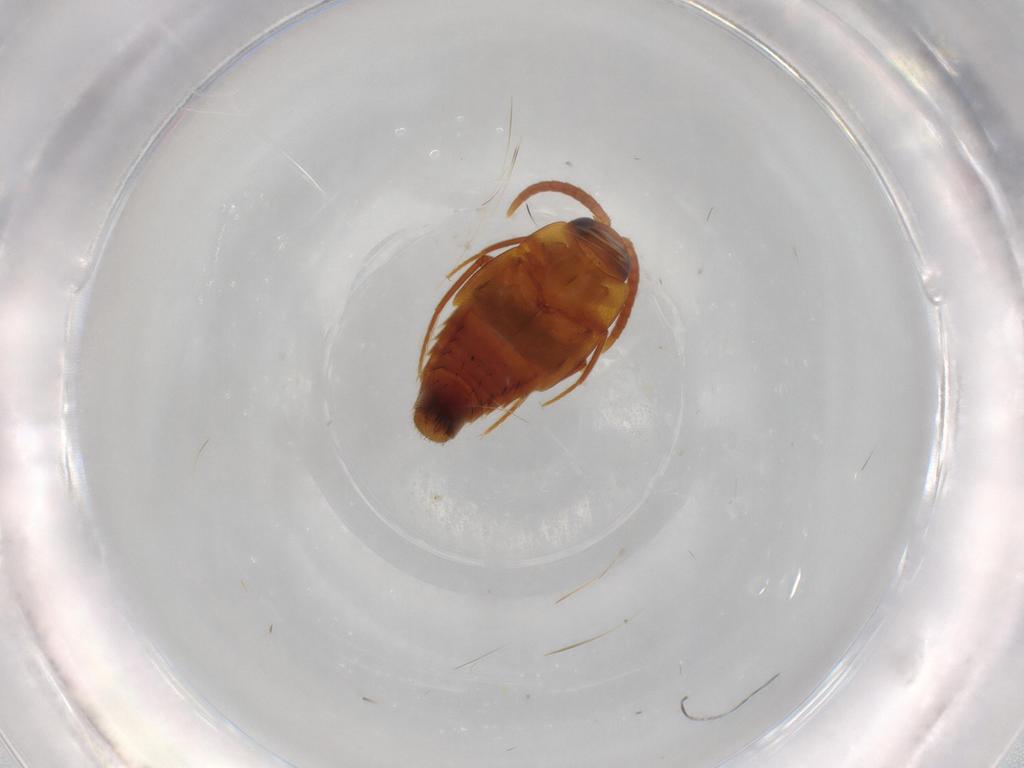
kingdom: Animalia
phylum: Arthropoda
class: Insecta
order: Coleoptera
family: Staphylinidae
